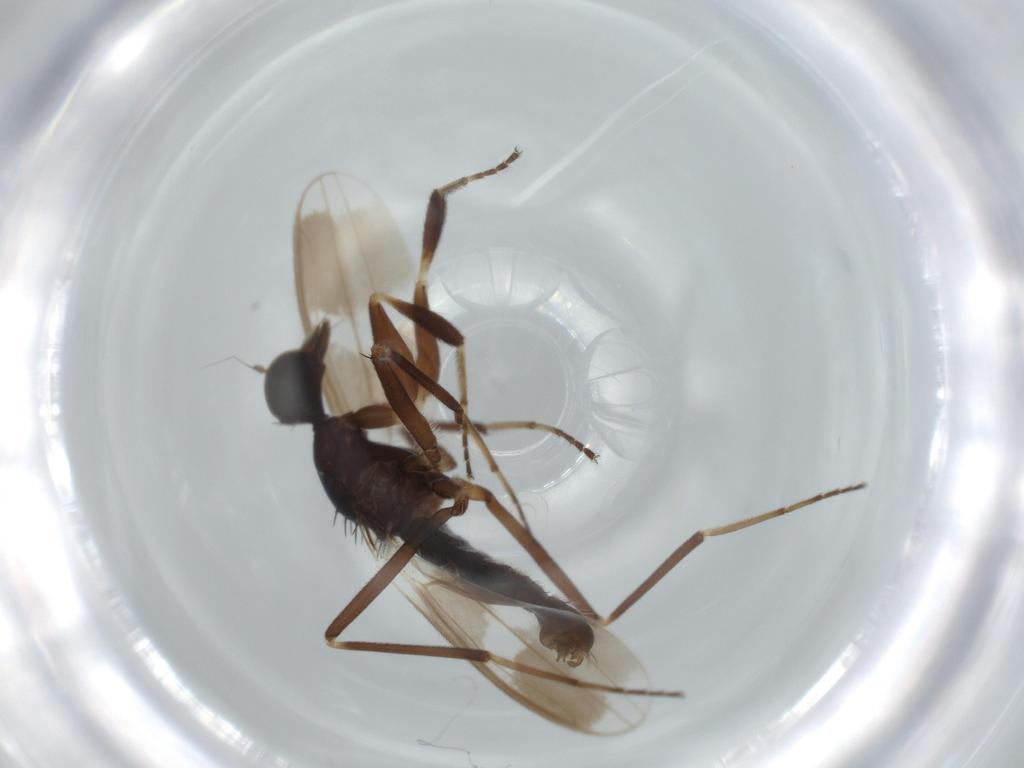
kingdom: Animalia
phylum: Arthropoda
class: Insecta
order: Diptera
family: Hybotidae
